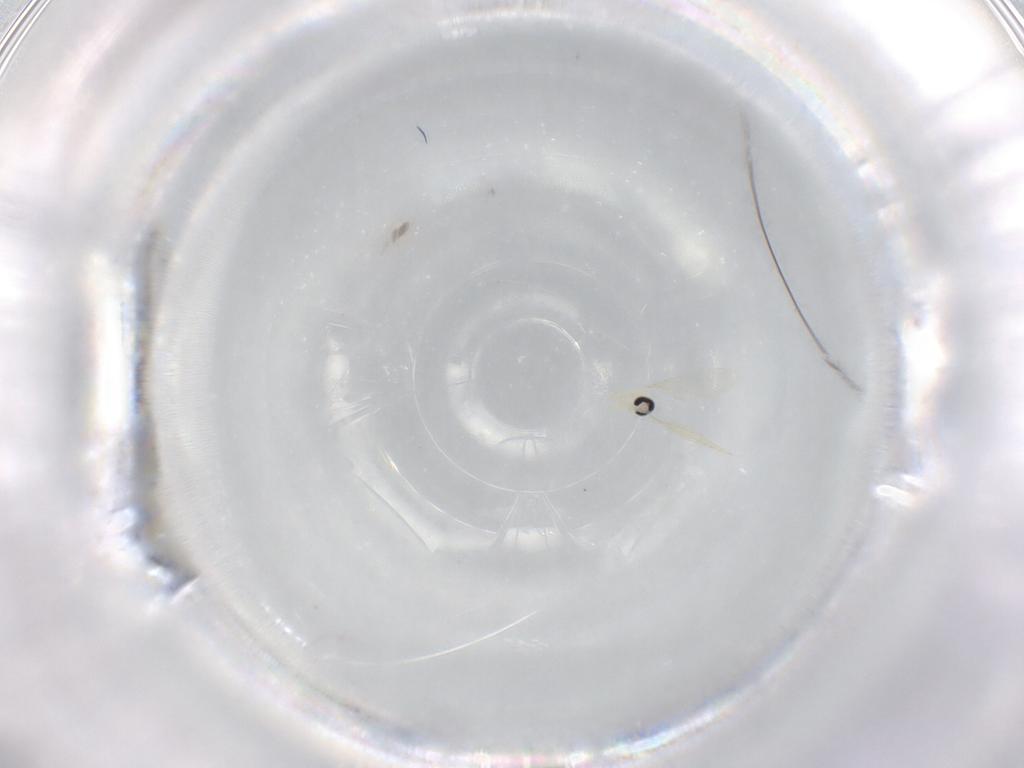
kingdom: Animalia
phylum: Arthropoda
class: Insecta
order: Diptera
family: Cecidomyiidae
